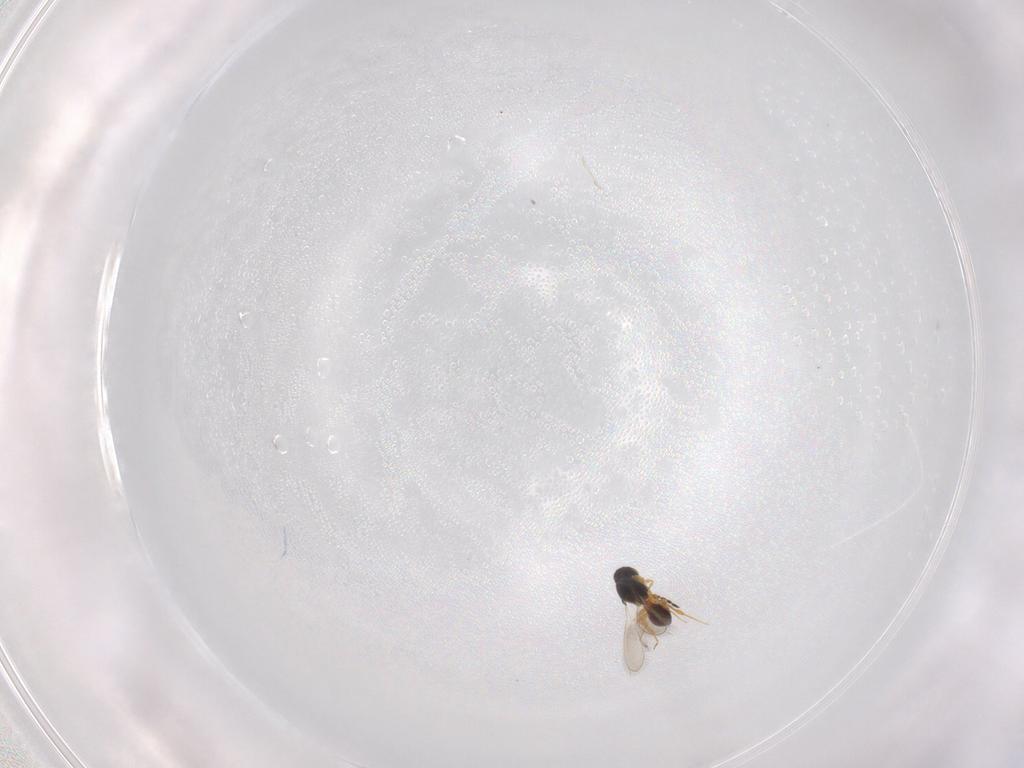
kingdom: Animalia
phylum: Arthropoda
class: Insecta
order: Hymenoptera
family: Platygastridae
